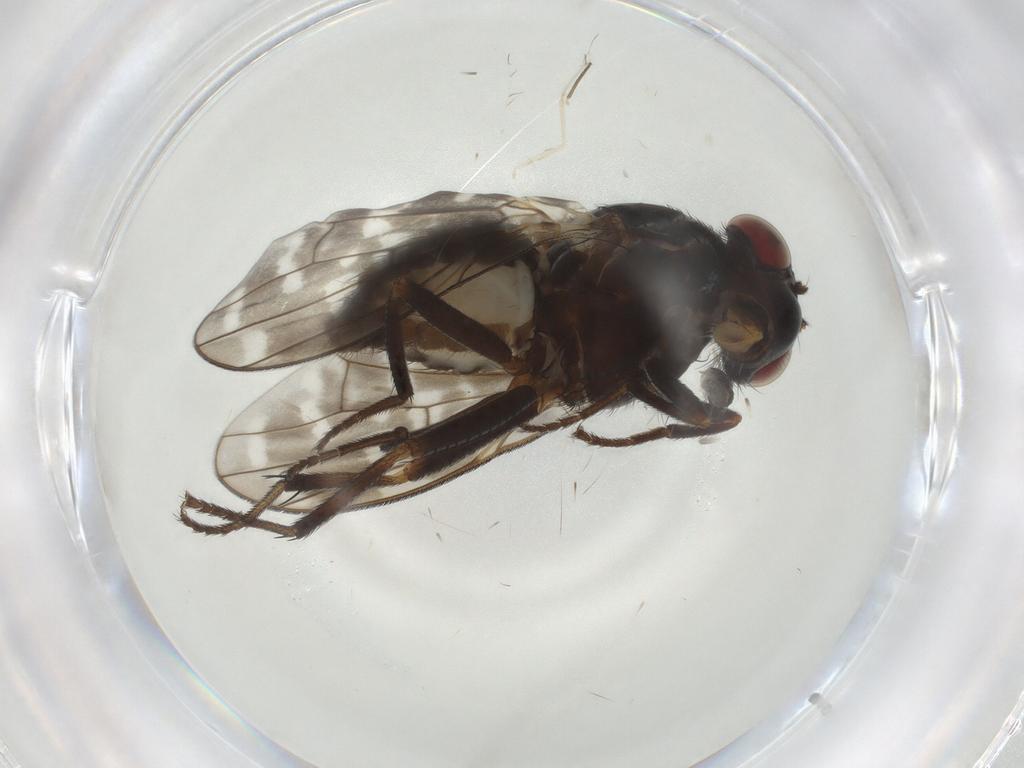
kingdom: Animalia
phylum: Arthropoda
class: Insecta
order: Diptera
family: Chironomidae
